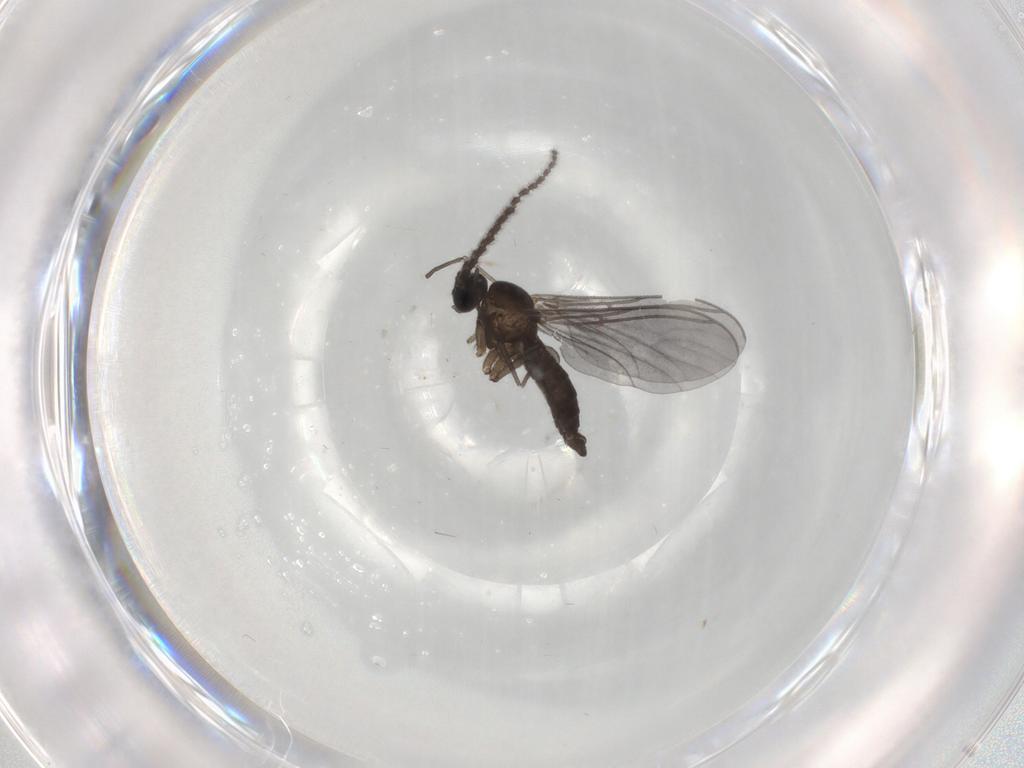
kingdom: Animalia
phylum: Arthropoda
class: Insecta
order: Diptera
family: Sciaridae
